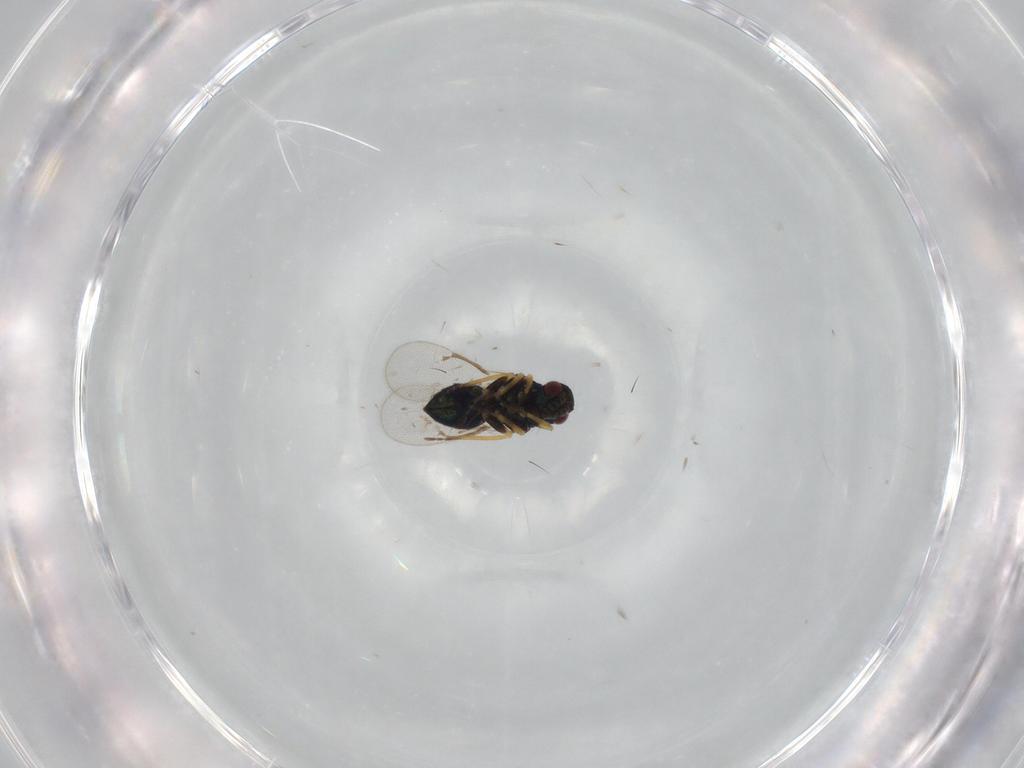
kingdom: Animalia
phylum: Arthropoda
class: Insecta
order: Hymenoptera
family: Eulophidae
